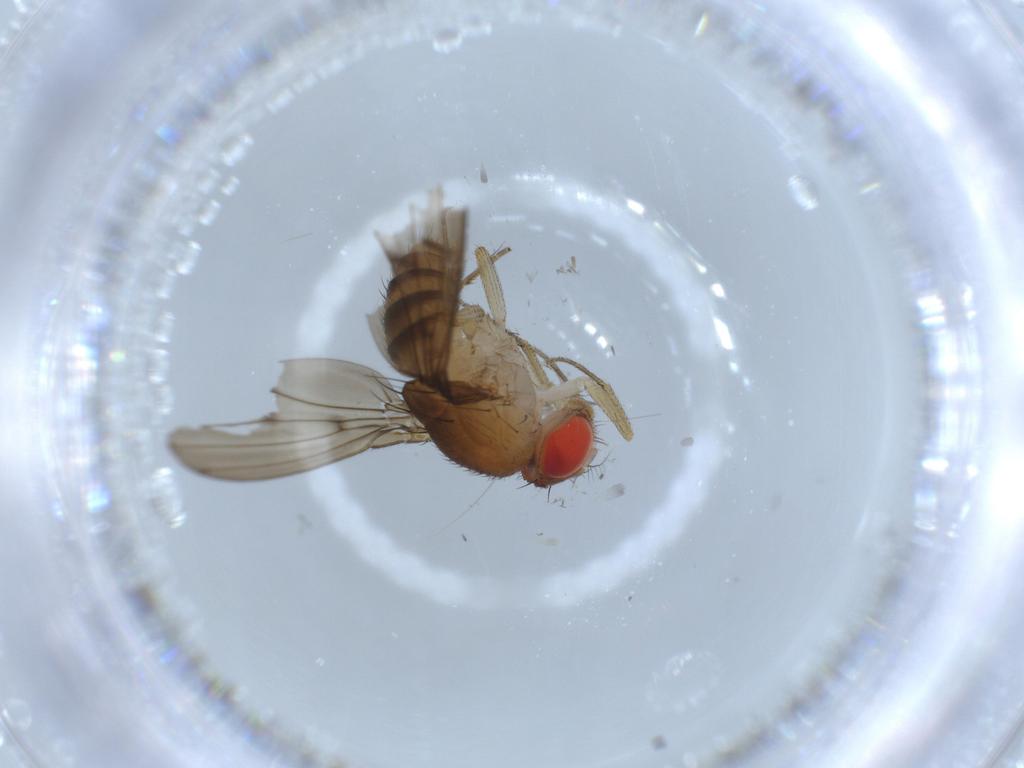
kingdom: Animalia
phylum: Arthropoda
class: Insecta
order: Diptera
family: Drosophilidae
